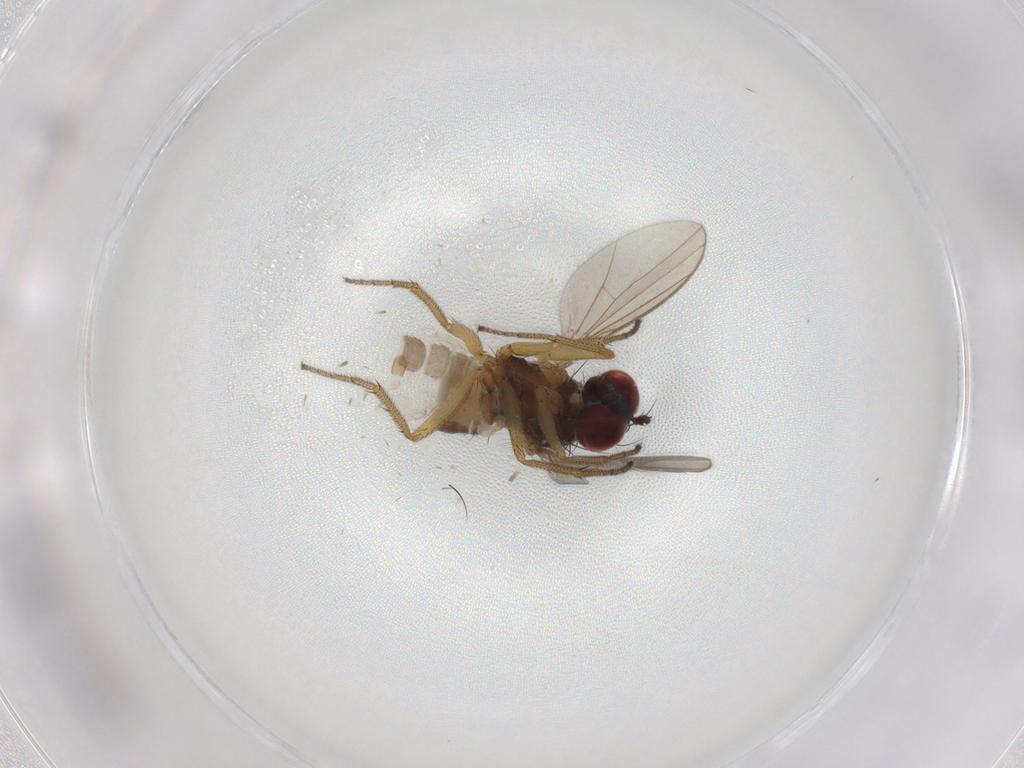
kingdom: Animalia
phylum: Arthropoda
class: Insecta
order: Diptera
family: Chironomidae
